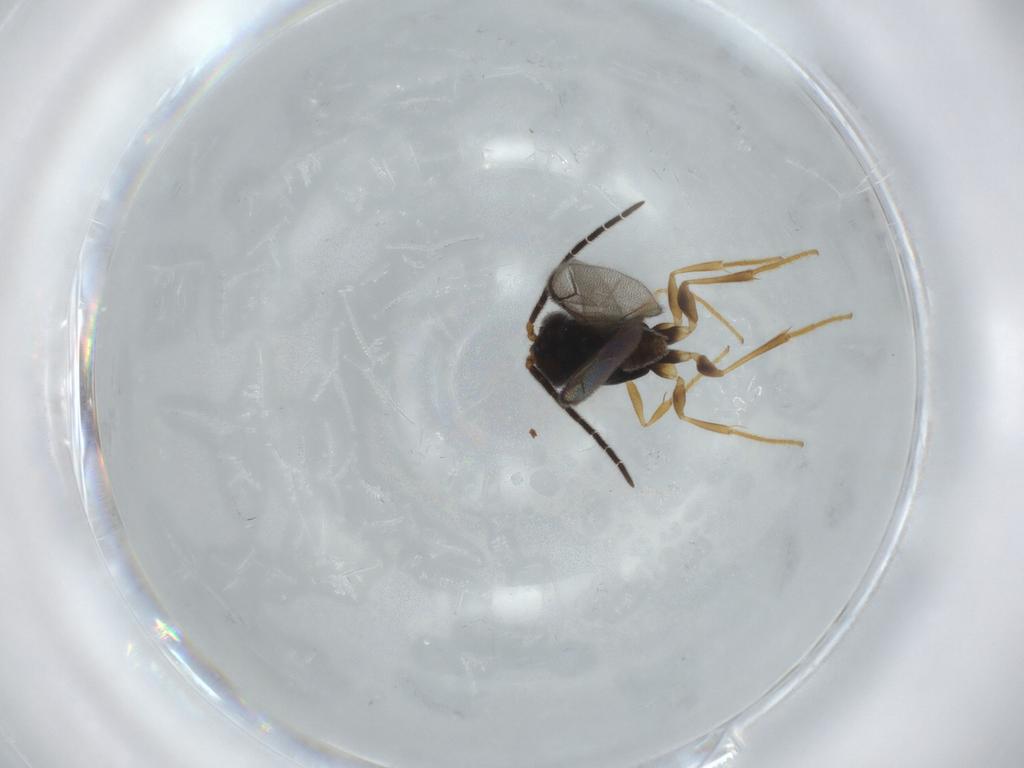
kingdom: Animalia
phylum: Arthropoda
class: Insecta
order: Hymenoptera
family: Dryinidae
